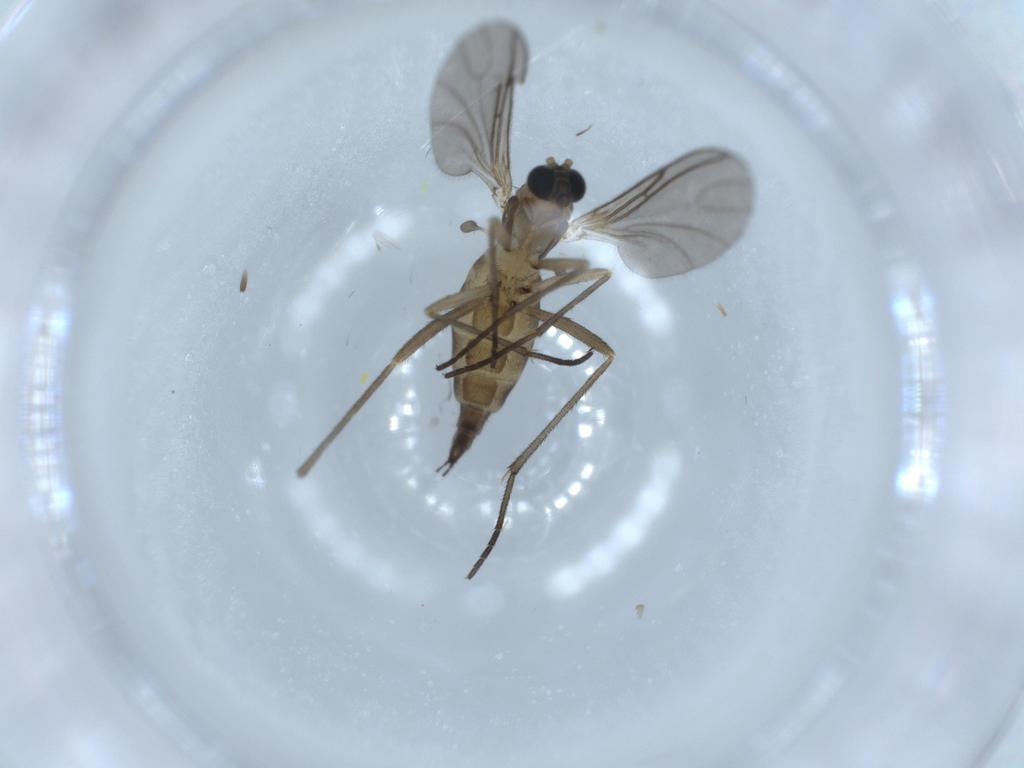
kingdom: Animalia
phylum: Arthropoda
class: Insecta
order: Diptera
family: Sciaridae
